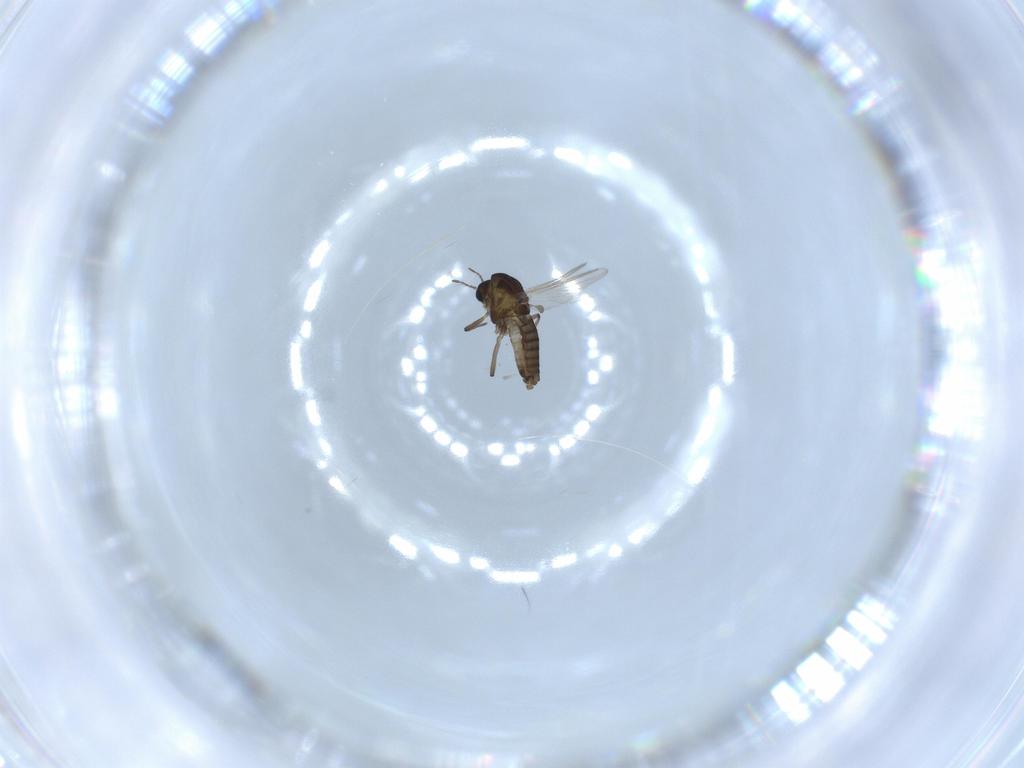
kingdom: Animalia
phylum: Arthropoda
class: Insecta
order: Diptera
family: Chironomidae
